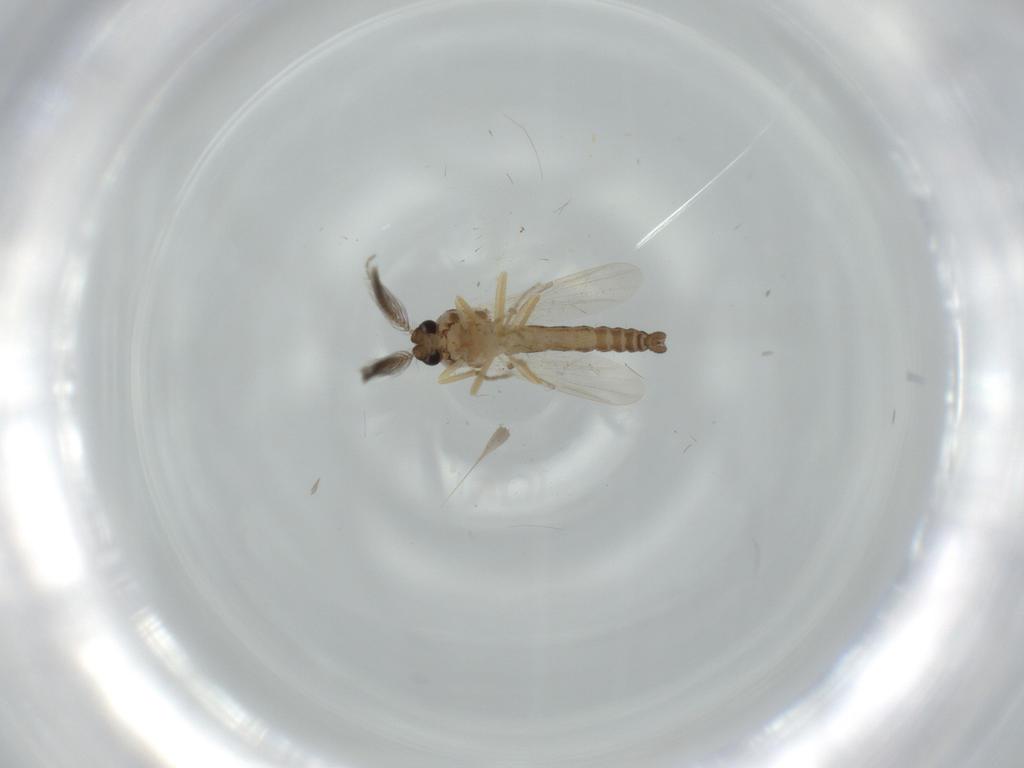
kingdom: Animalia
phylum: Arthropoda
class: Insecta
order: Diptera
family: Ceratopogonidae
